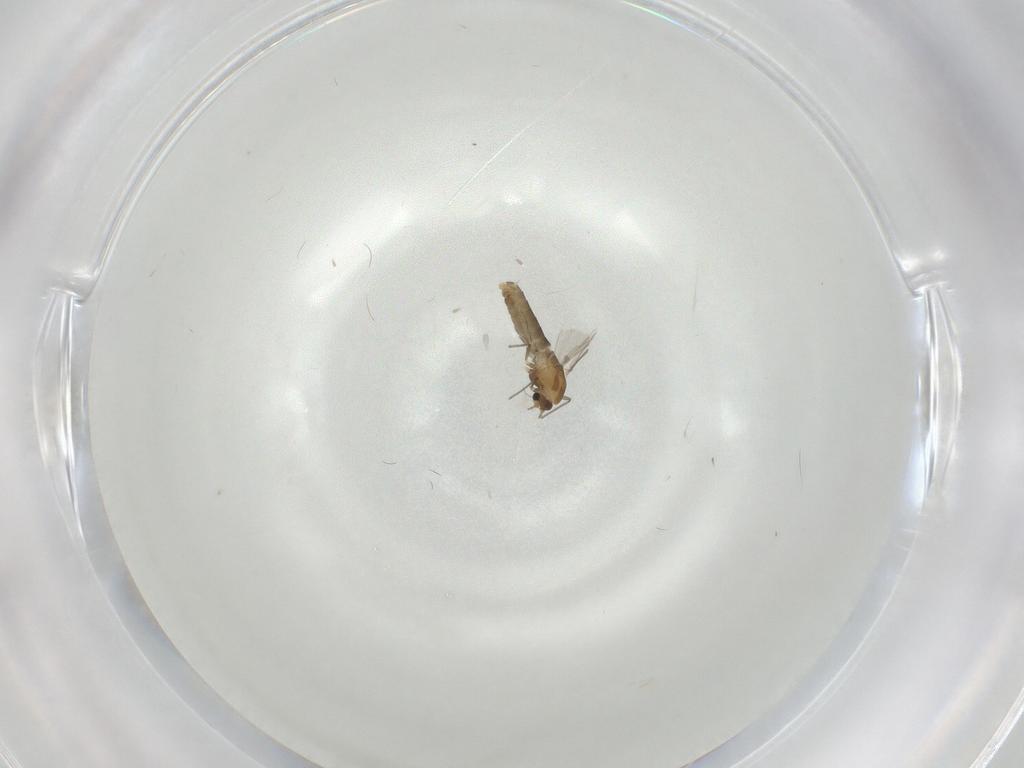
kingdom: Animalia
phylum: Arthropoda
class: Insecta
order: Diptera
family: Chironomidae
